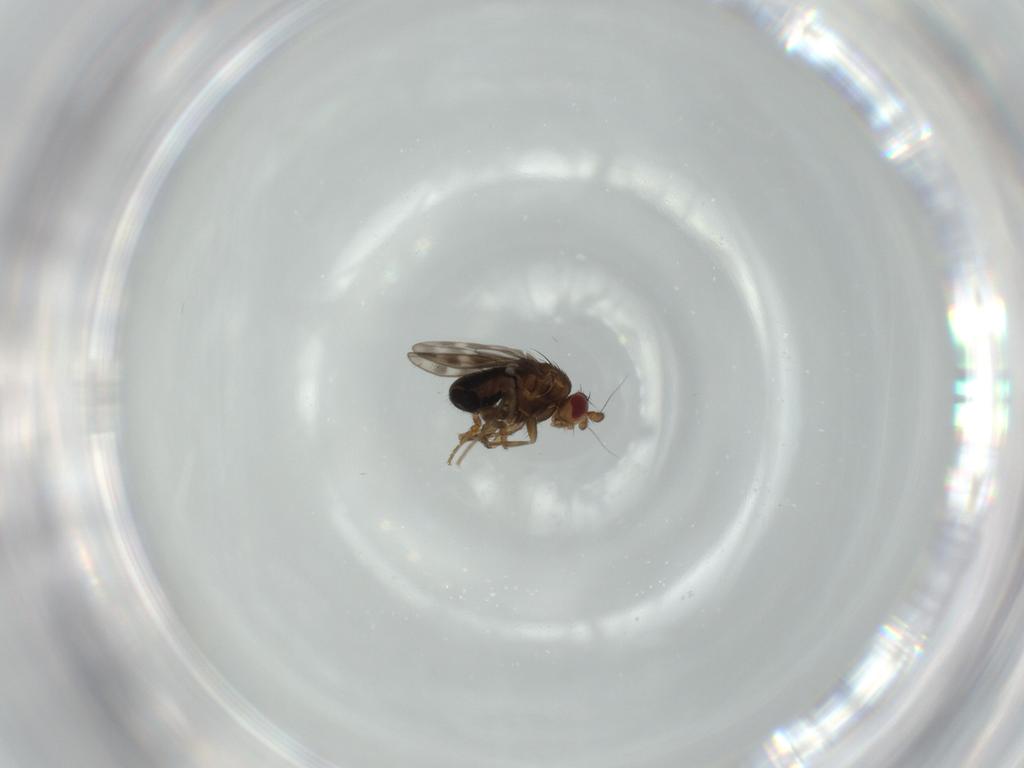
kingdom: Animalia
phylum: Arthropoda
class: Insecta
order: Diptera
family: Sphaeroceridae
